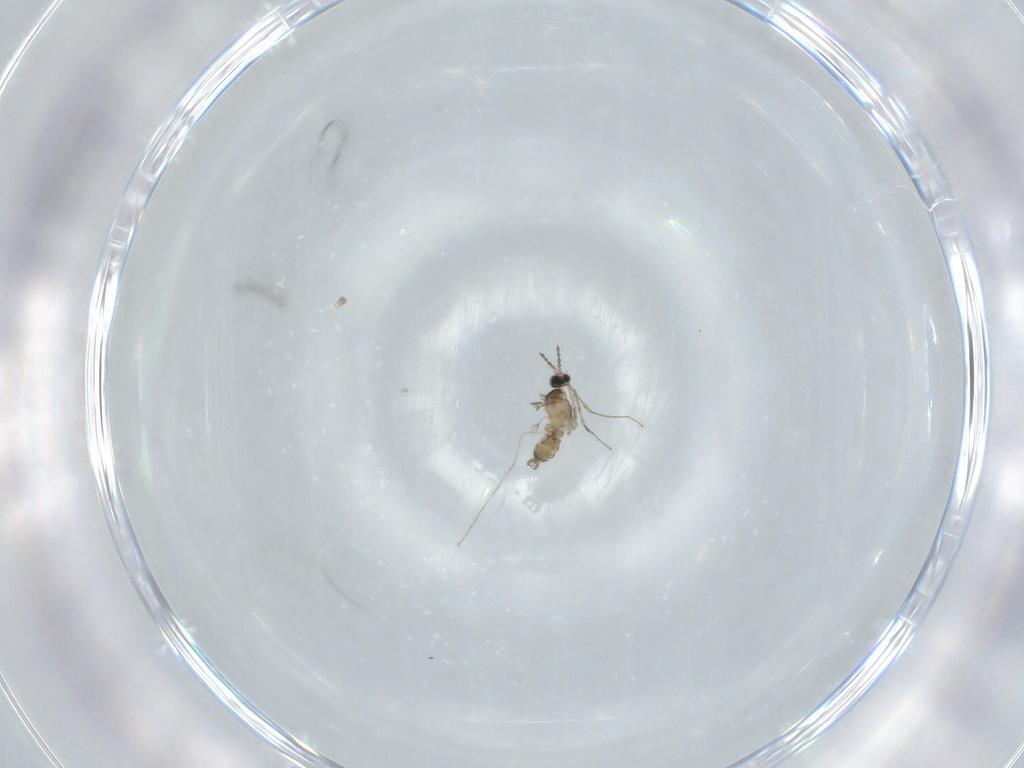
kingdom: Animalia
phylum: Arthropoda
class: Insecta
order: Diptera
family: Cecidomyiidae
